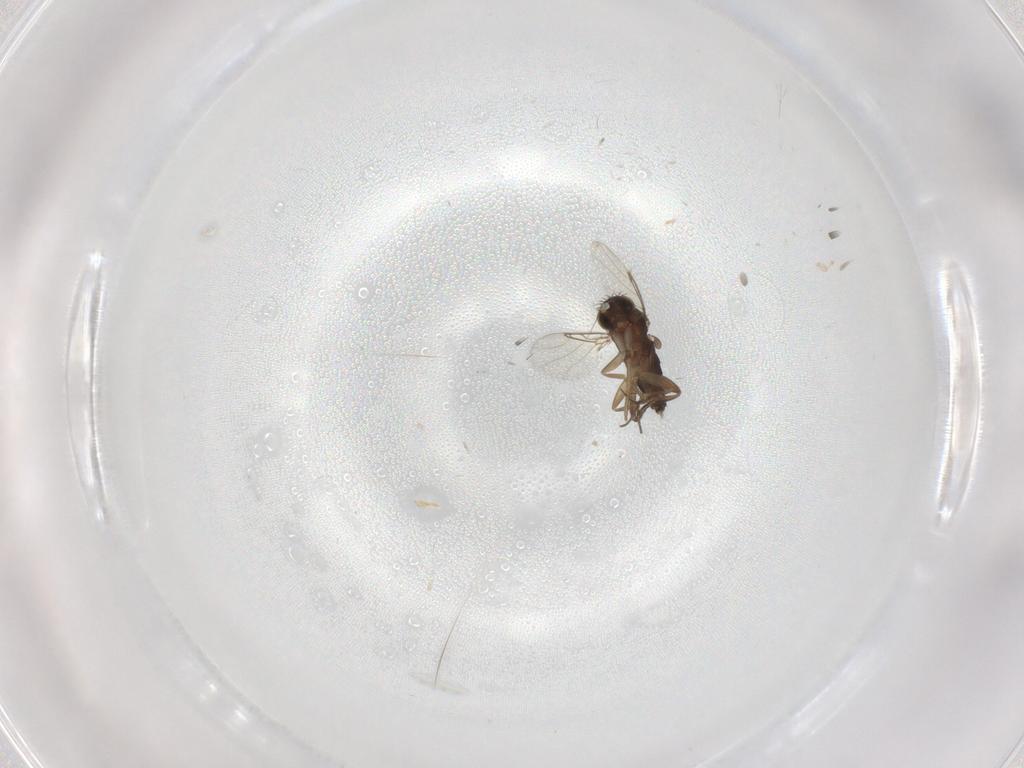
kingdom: Animalia
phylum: Arthropoda
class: Insecta
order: Diptera
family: Phoridae
